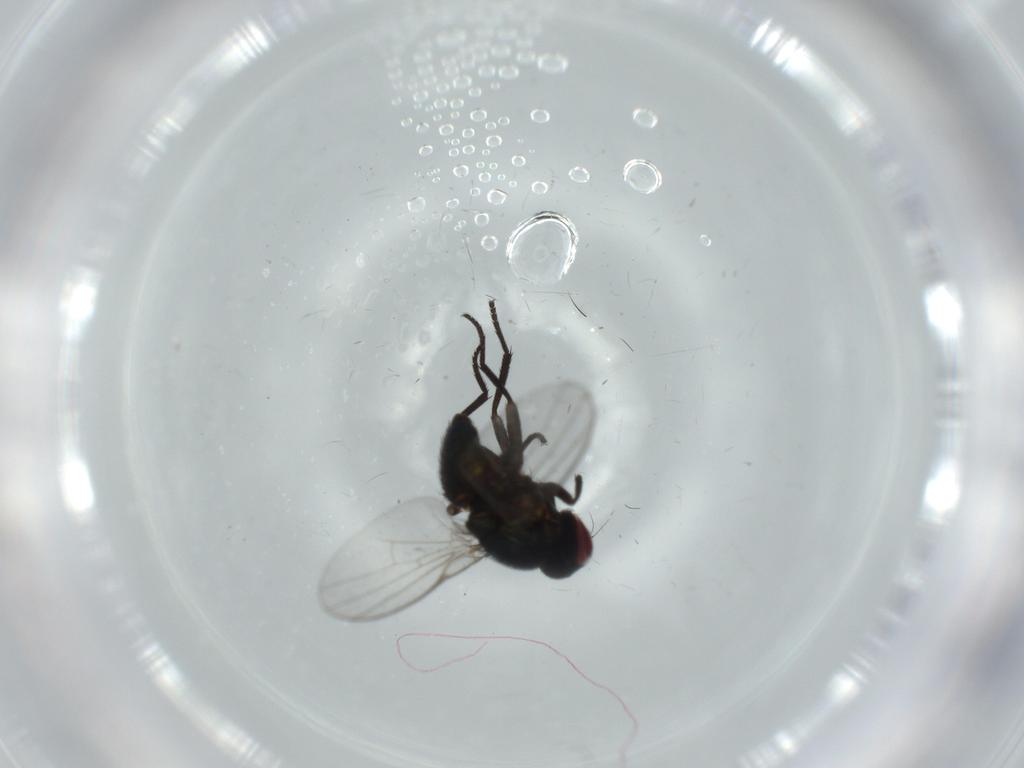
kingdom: Animalia
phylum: Arthropoda
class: Insecta
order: Diptera
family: Agromyzidae
